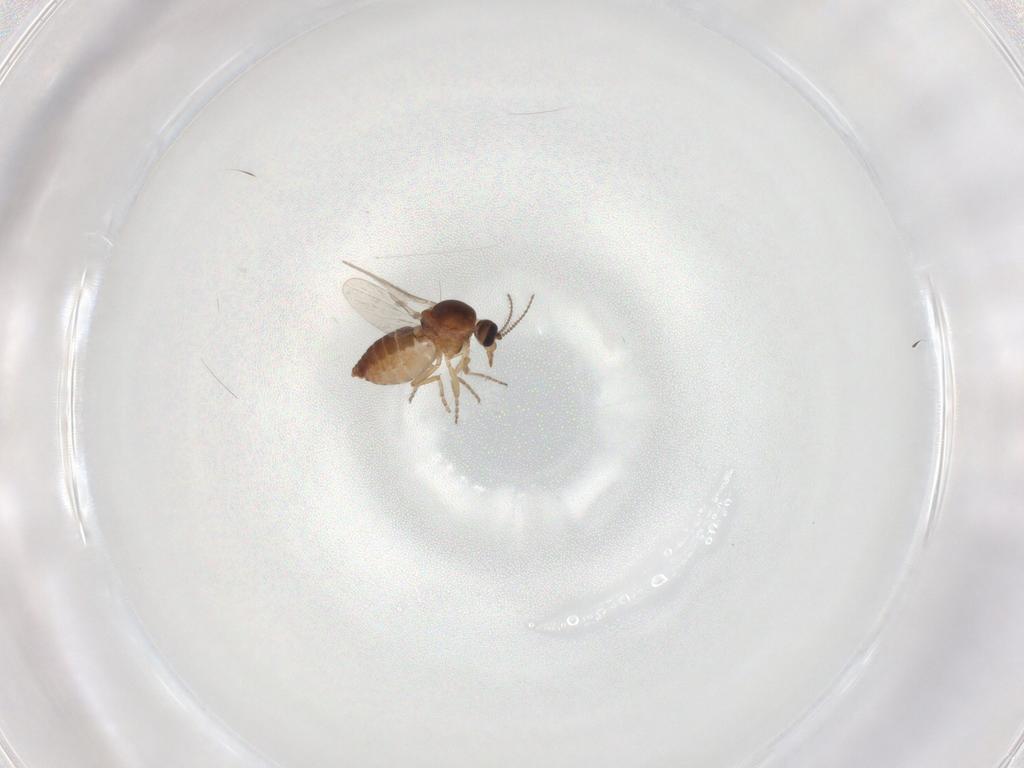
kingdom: Animalia
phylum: Arthropoda
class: Insecta
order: Diptera
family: Ceratopogonidae
